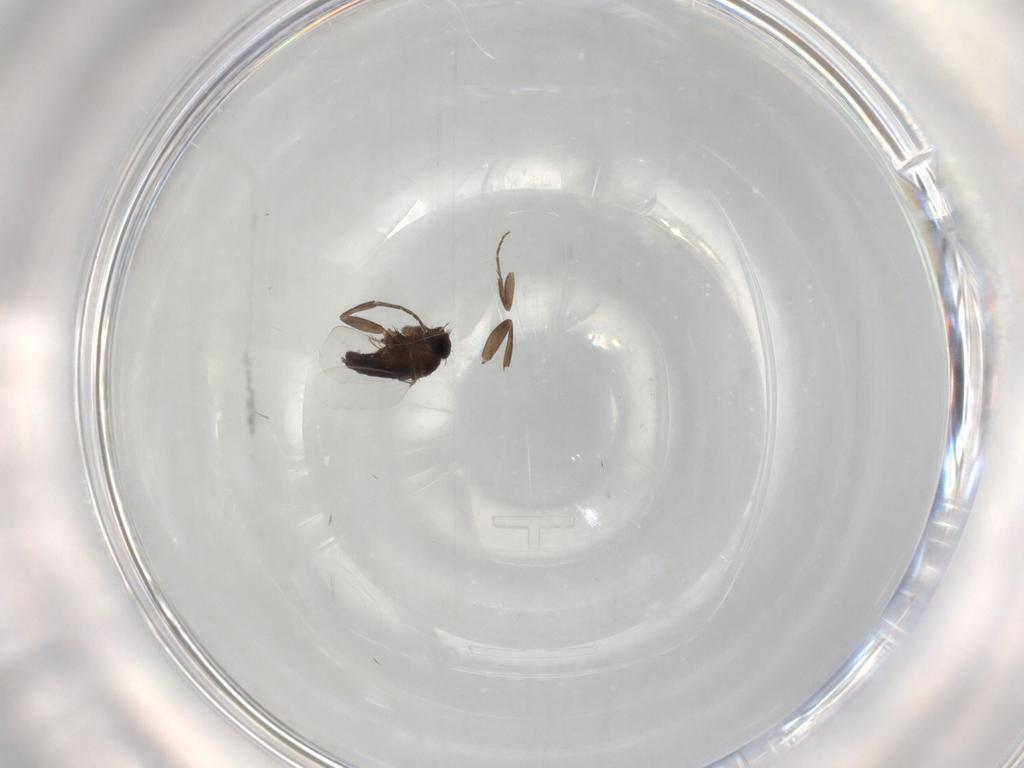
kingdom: Animalia
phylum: Arthropoda
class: Insecta
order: Diptera
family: Phoridae
